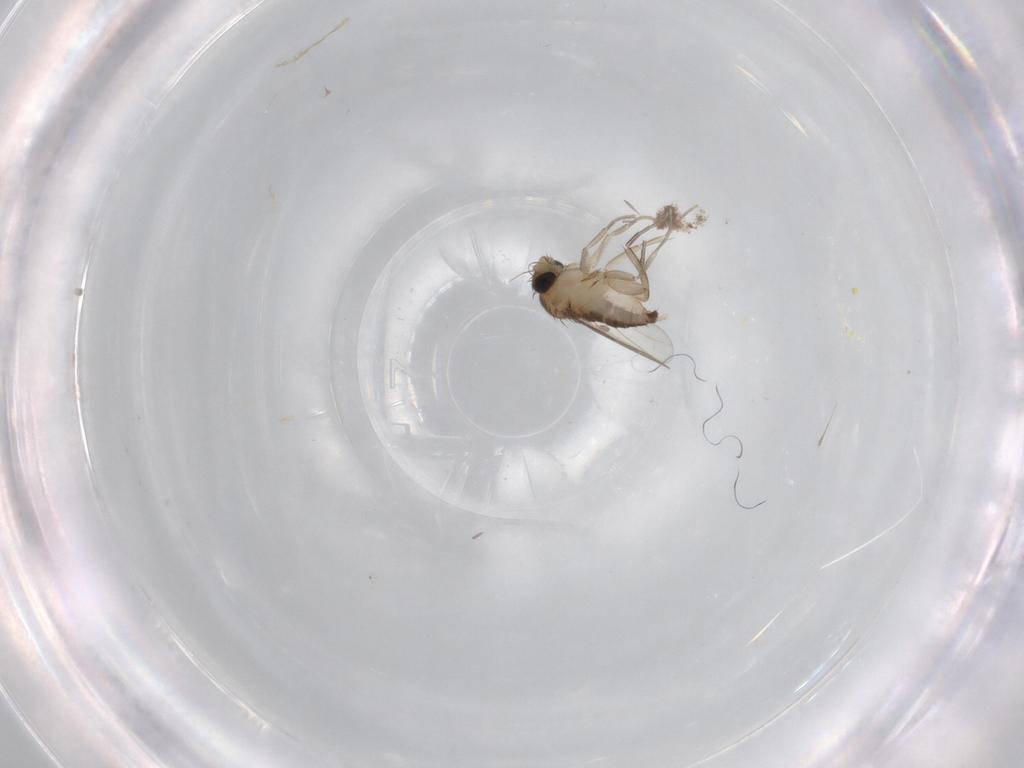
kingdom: Animalia
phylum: Arthropoda
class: Insecta
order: Diptera
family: Phoridae
